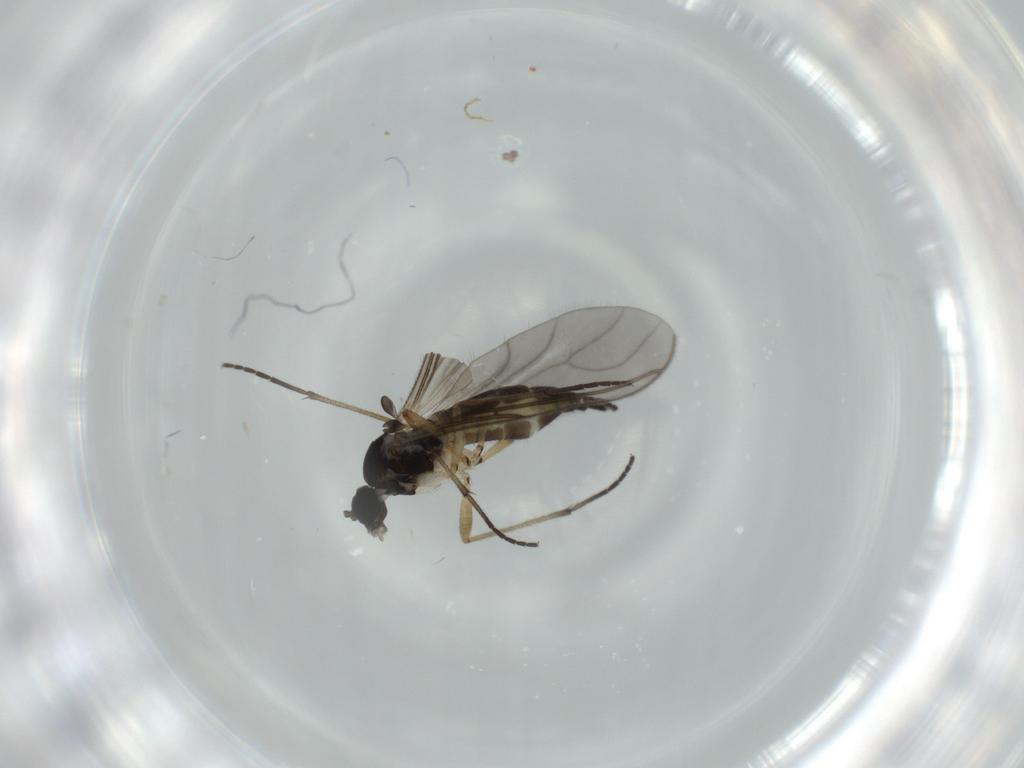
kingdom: Animalia
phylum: Arthropoda
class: Insecta
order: Diptera
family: Sciaridae
